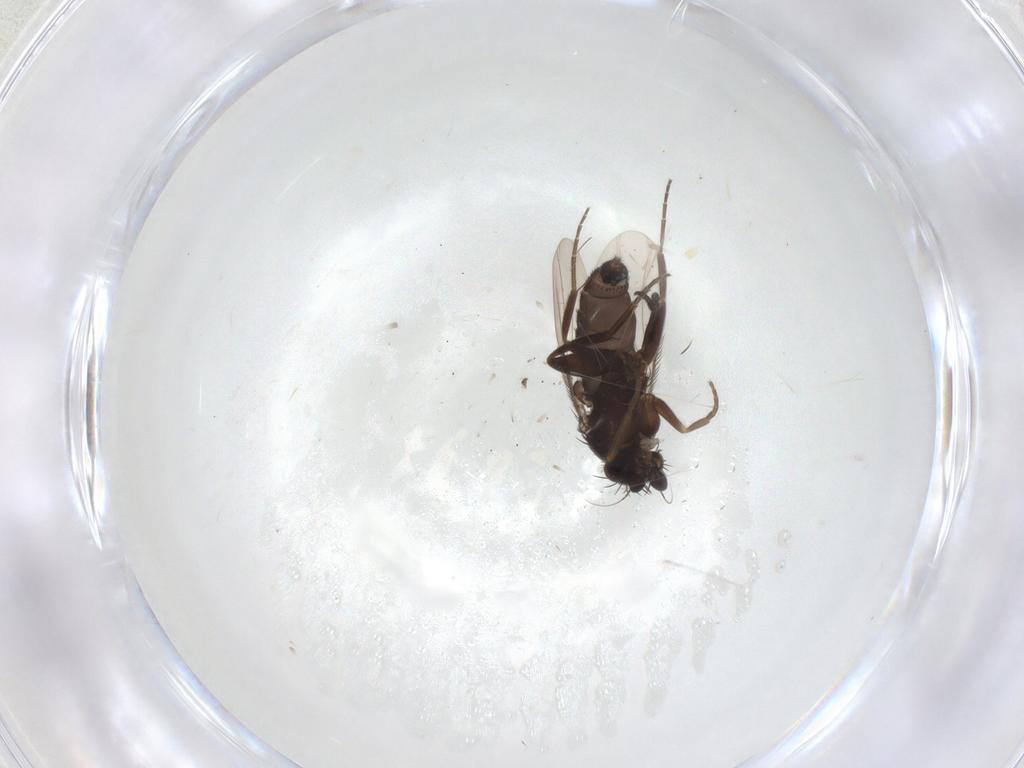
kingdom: Animalia
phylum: Arthropoda
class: Insecta
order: Diptera
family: Phoridae
